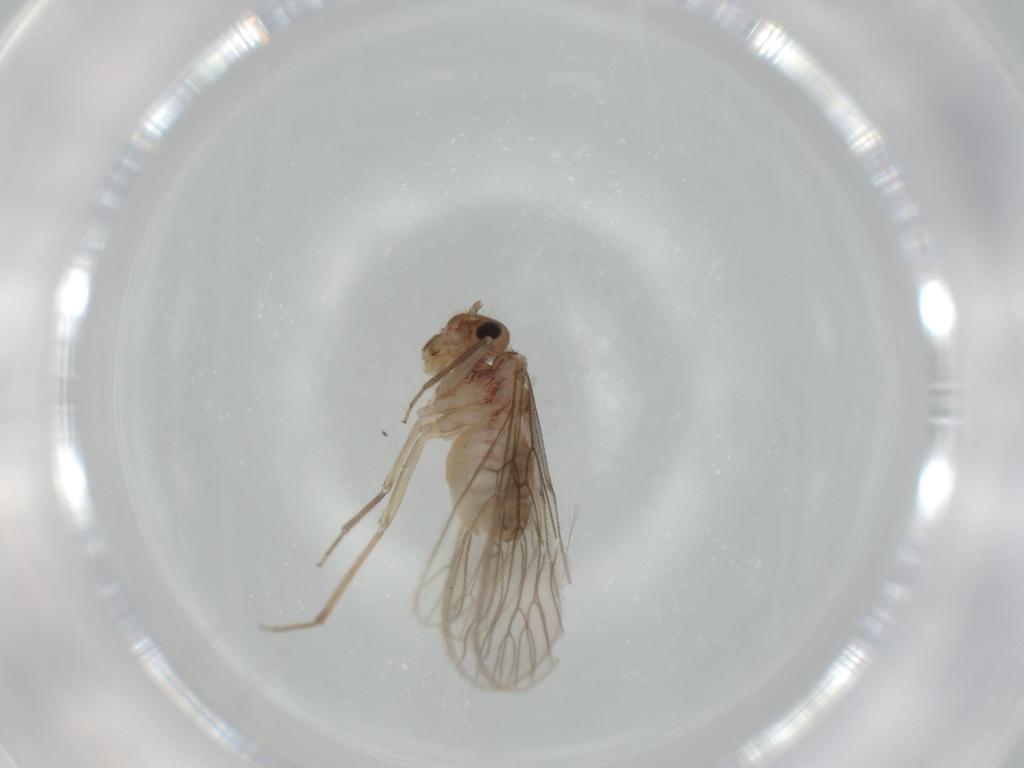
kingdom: Animalia
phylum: Arthropoda
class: Insecta
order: Psocodea
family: Cladiopsocidae
